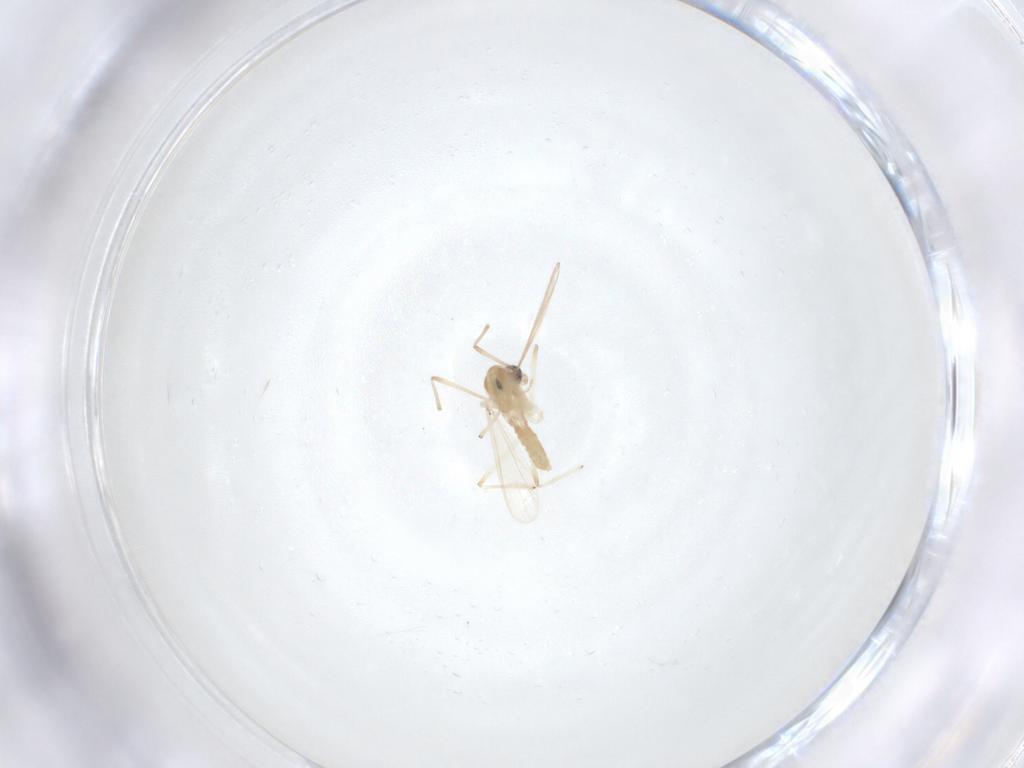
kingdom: Animalia
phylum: Arthropoda
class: Insecta
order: Diptera
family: Chironomidae
